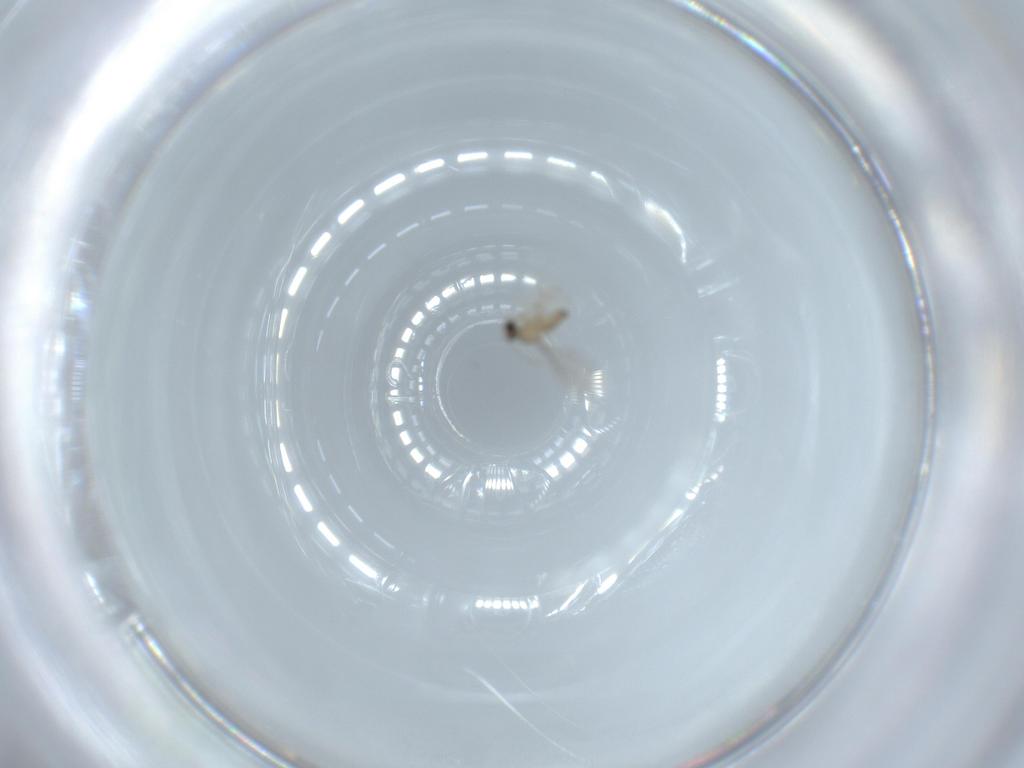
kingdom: Animalia
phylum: Arthropoda
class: Insecta
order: Diptera
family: Cecidomyiidae
